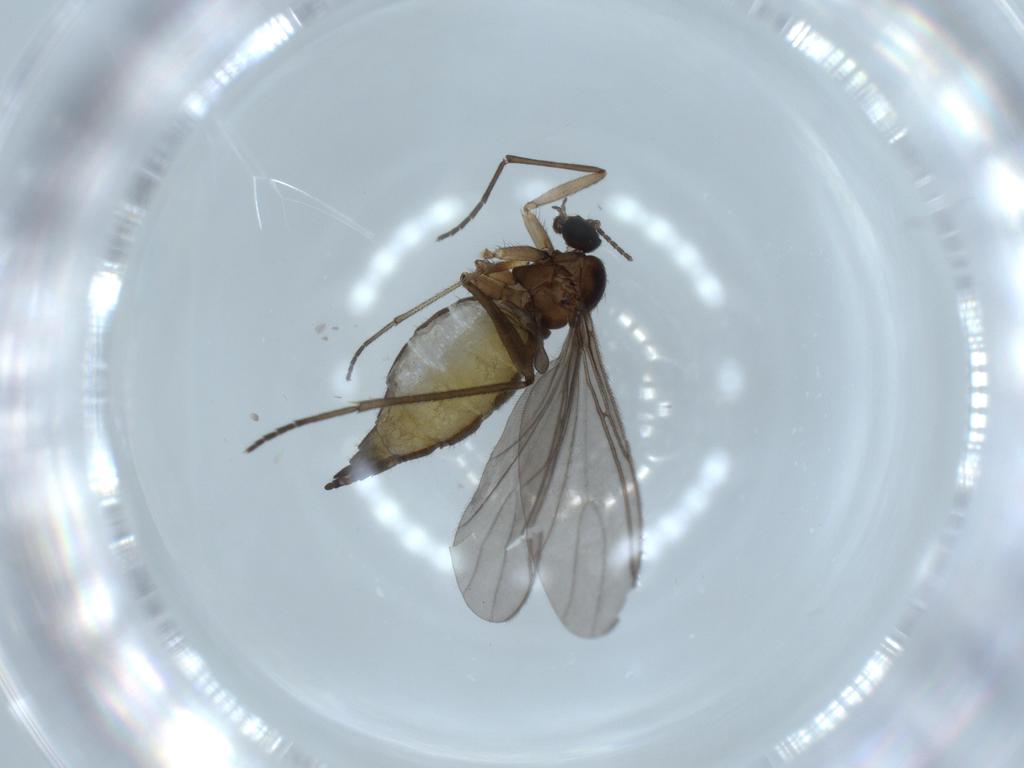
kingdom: Animalia
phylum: Arthropoda
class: Insecta
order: Diptera
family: Sciaridae
